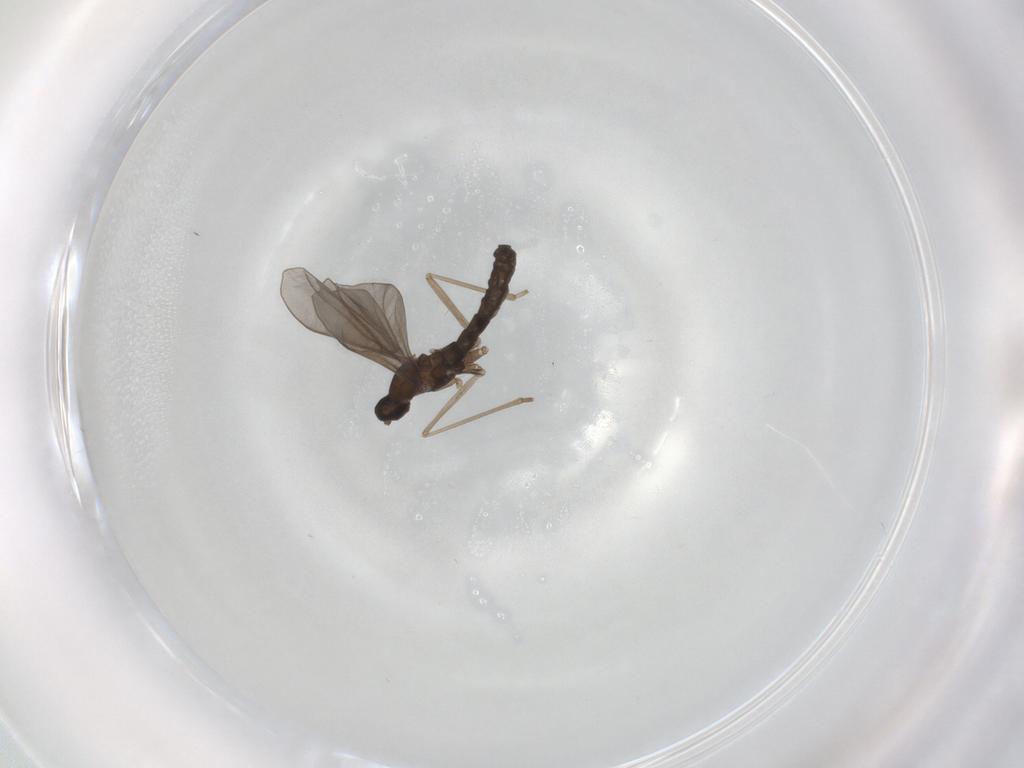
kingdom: Animalia
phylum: Arthropoda
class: Insecta
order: Diptera
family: Cecidomyiidae
